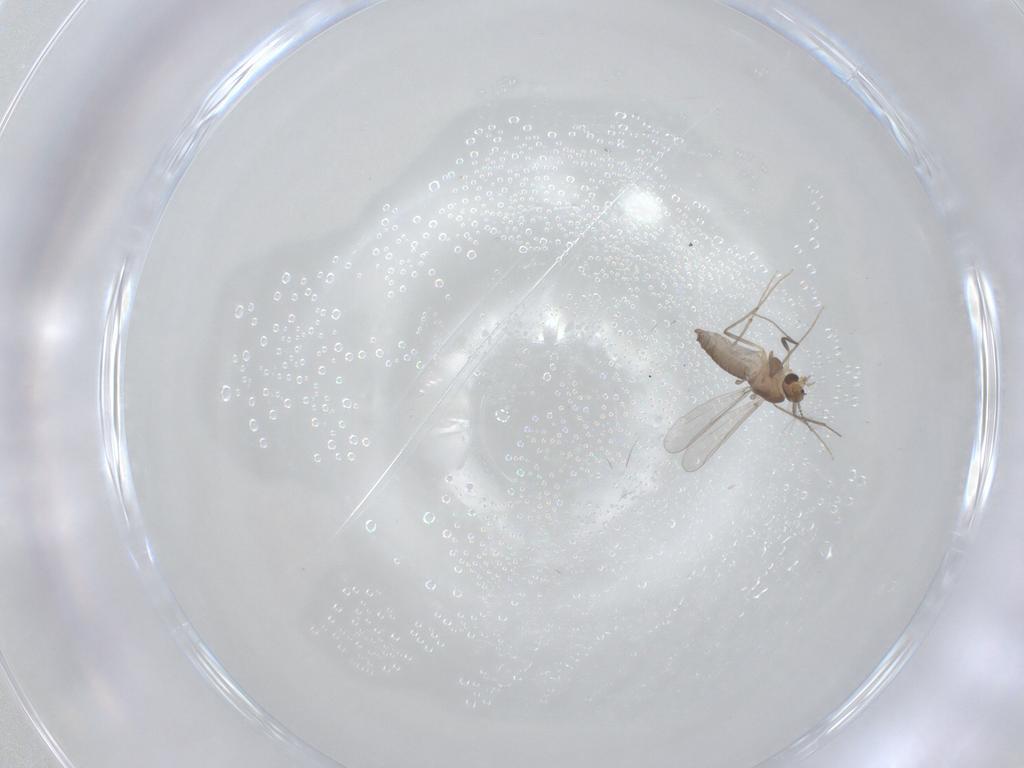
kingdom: Animalia
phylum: Arthropoda
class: Insecta
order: Diptera
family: Chironomidae
